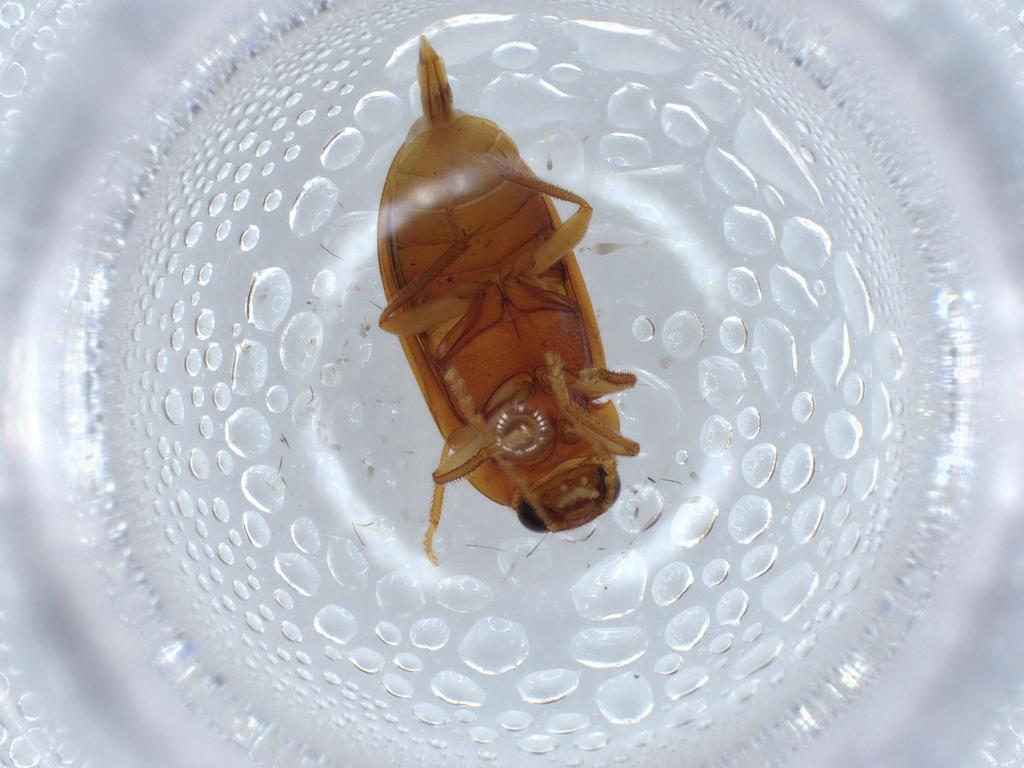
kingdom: Animalia
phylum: Arthropoda
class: Insecta
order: Coleoptera
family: Ptilodactylidae
